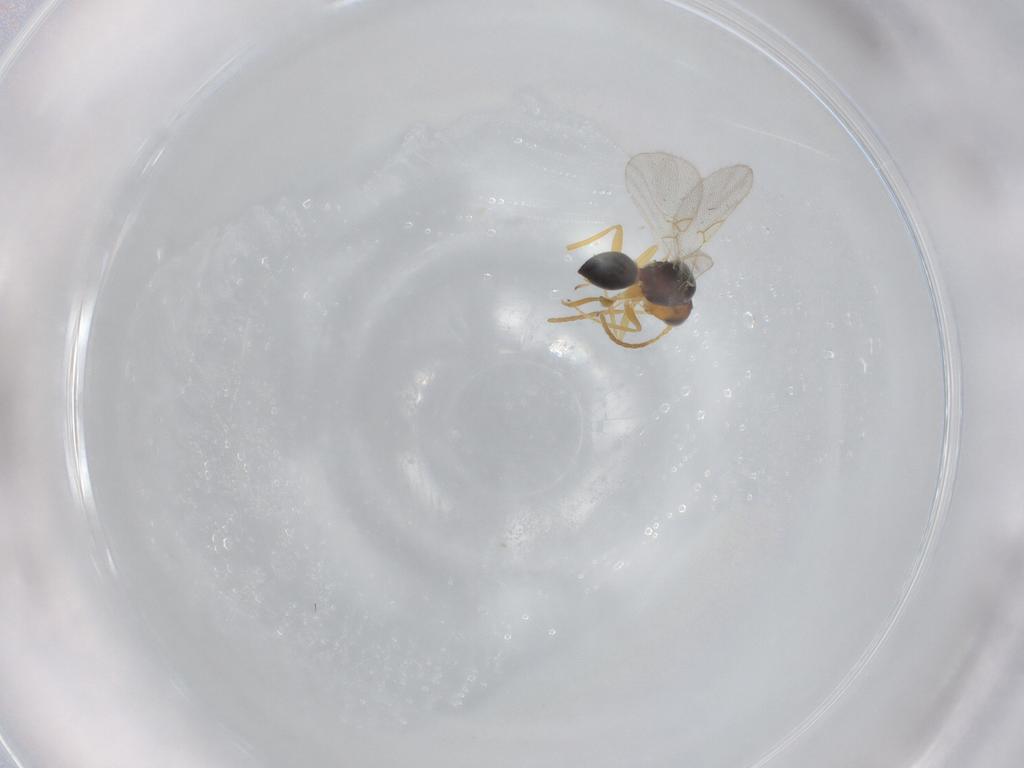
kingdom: Animalia
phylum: Arthropoda
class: Insecta
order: Hymenoptera
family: Figitidae
